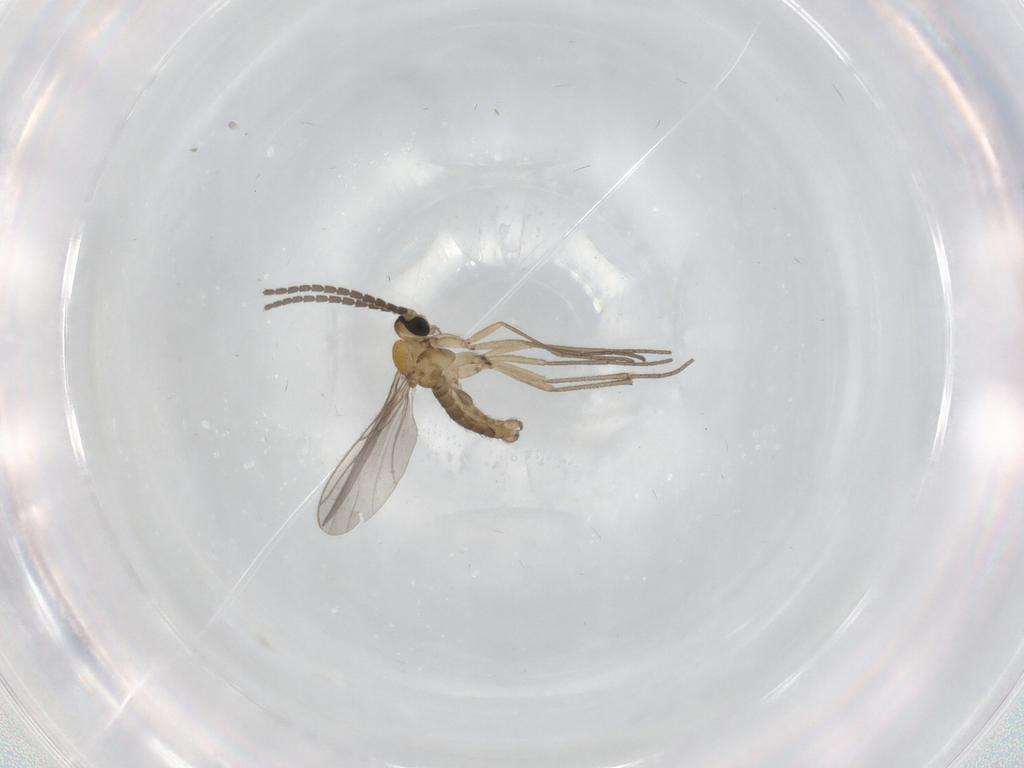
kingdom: Animalia
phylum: Arthropoda
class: Insecta
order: Diptera
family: Sciaridae
